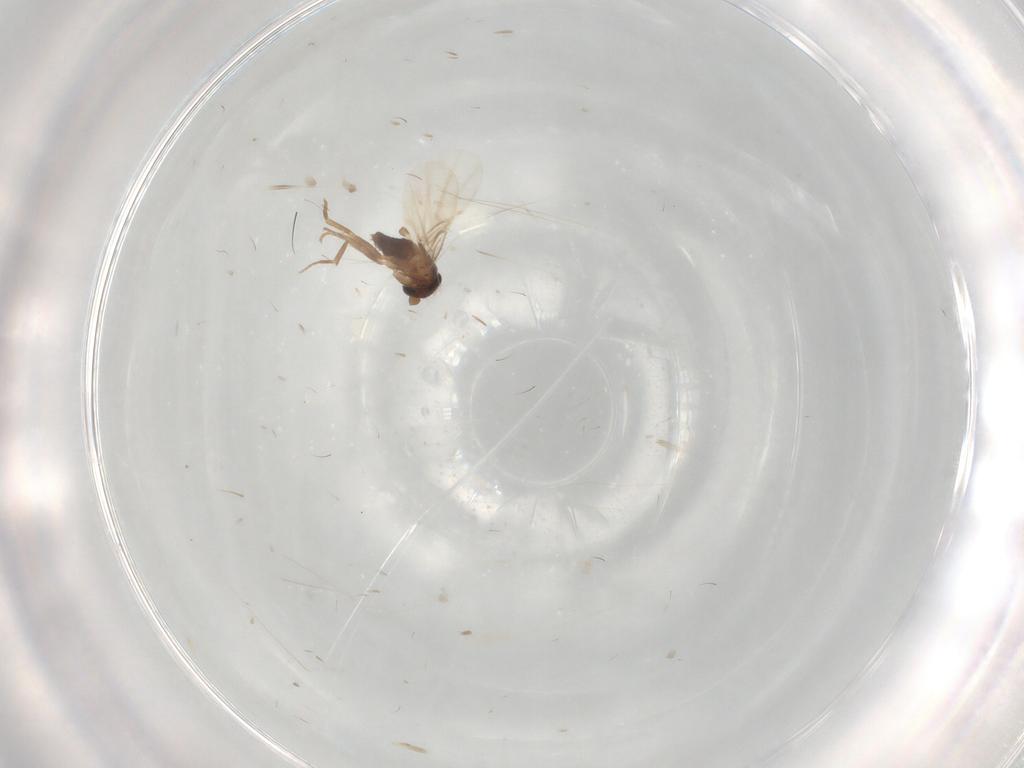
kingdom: Animalia
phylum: Arthropoda
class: Insecta
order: Diptera
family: Phoridae
